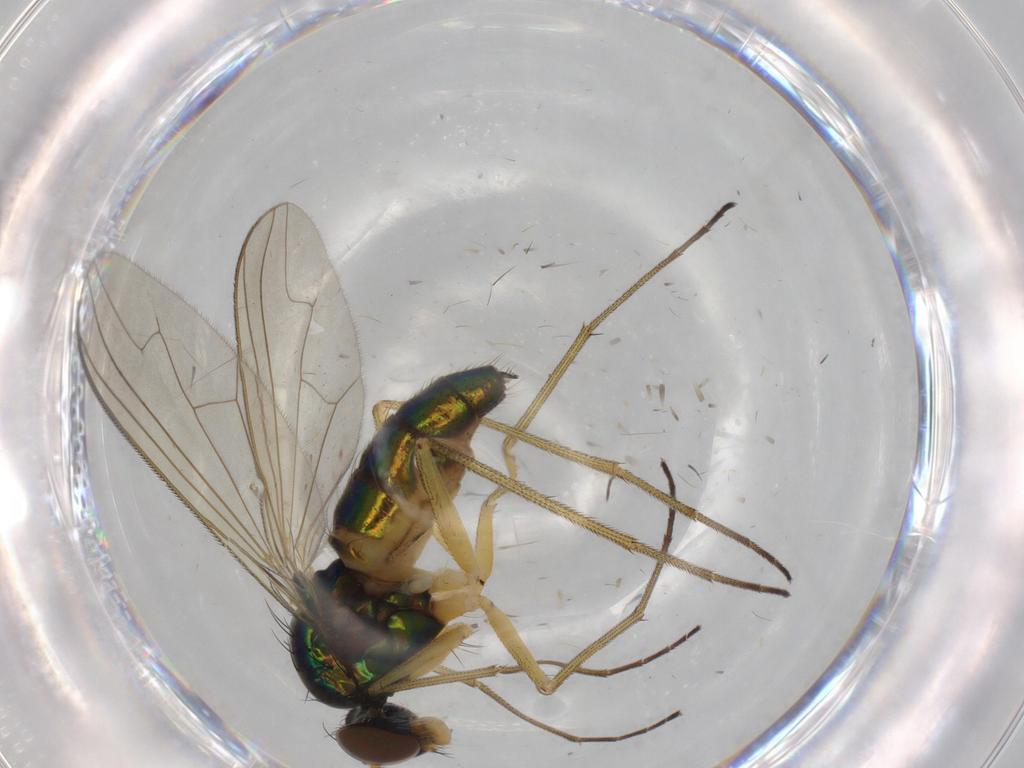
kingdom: Animalia
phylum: Arthropoda
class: Insecta
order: Diptera
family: Dolichopodidae
